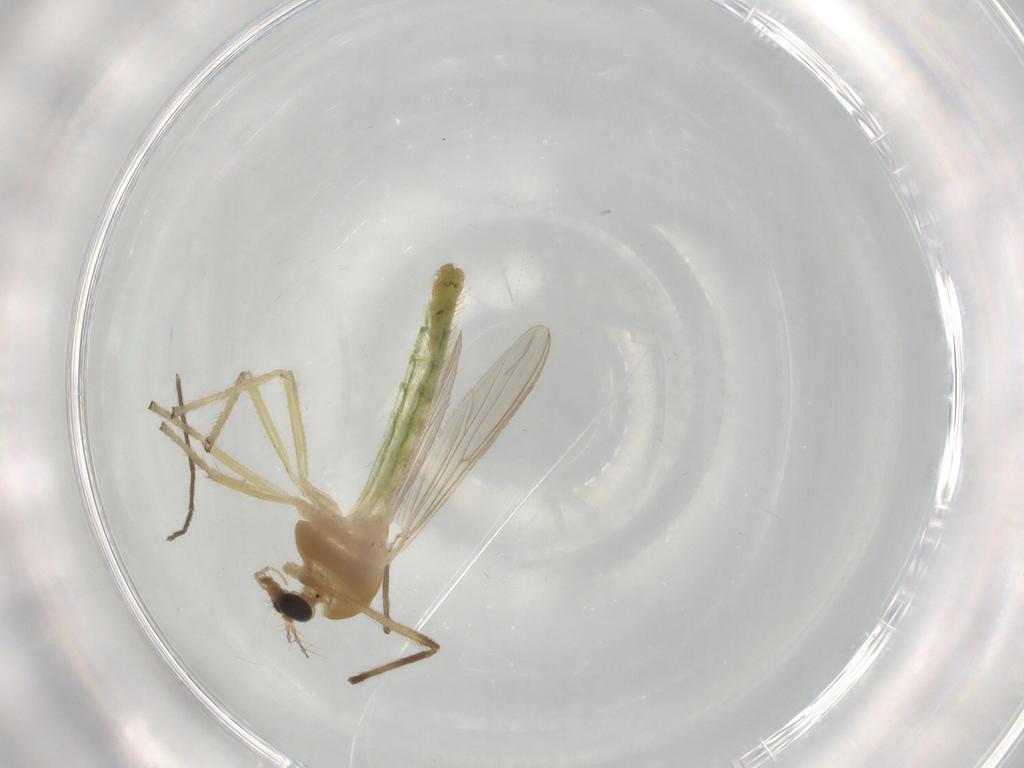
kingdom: Animalia
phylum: Arthropoda
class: Insecta
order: Diptera
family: Chironomidae
